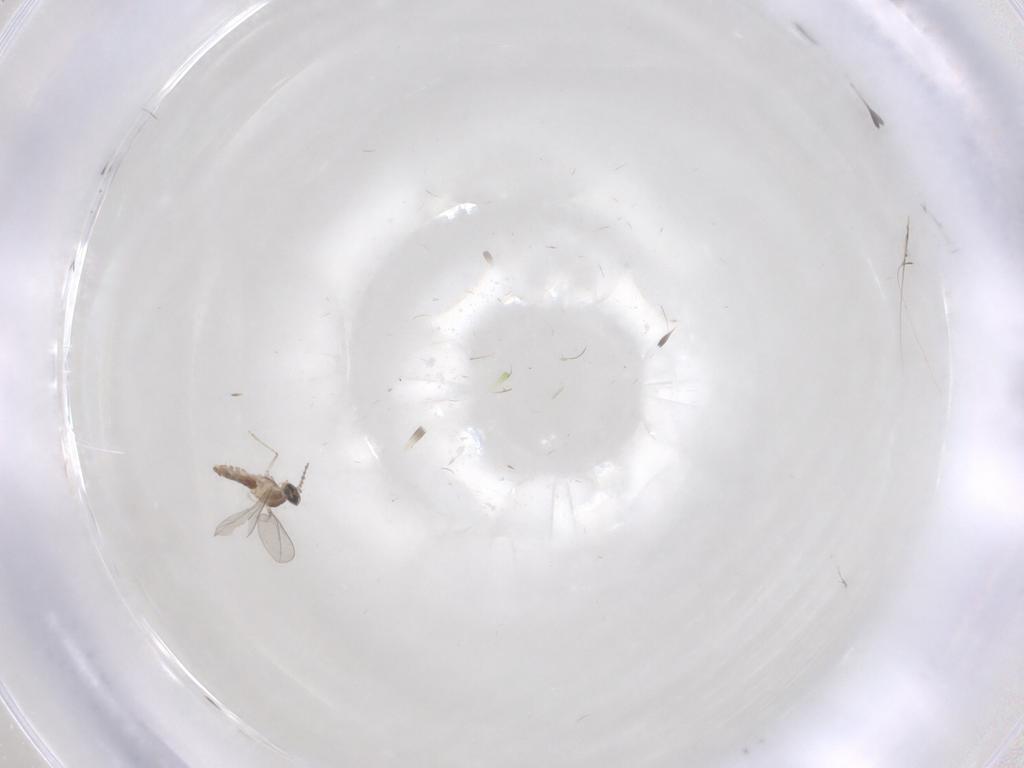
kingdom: Animalia
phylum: Arthropoda
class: Insecta
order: Diptera
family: Cecidomyiidae
